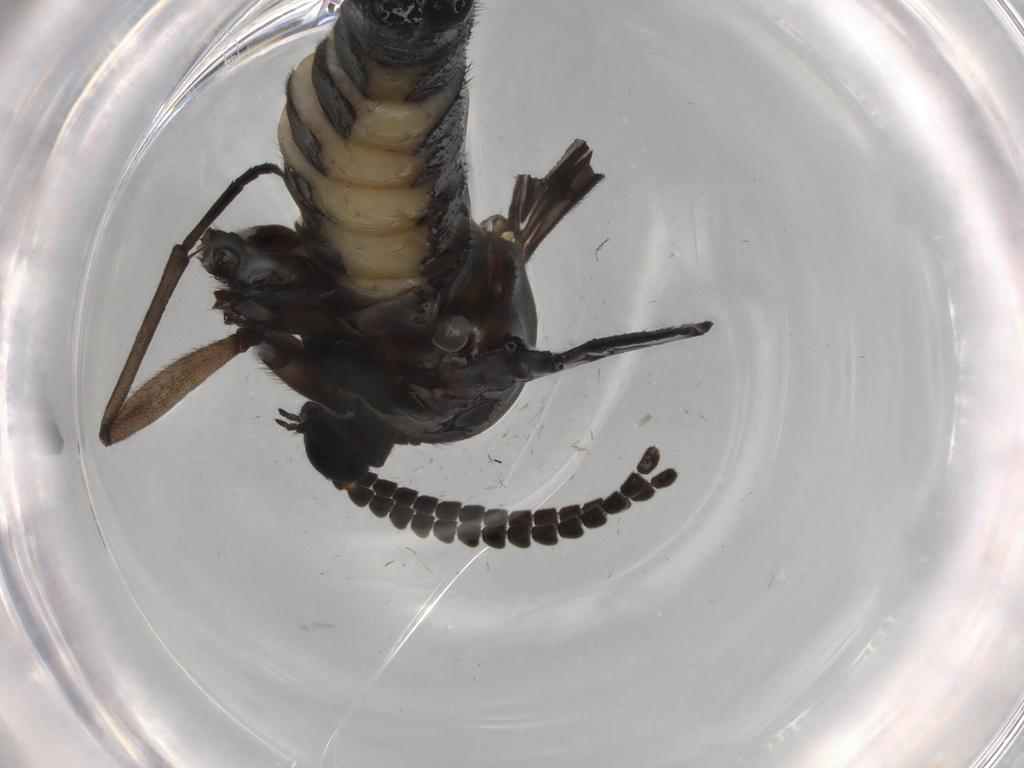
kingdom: Animalia
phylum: Arthropoda
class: Insecta
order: Diptera
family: Sciaridae
